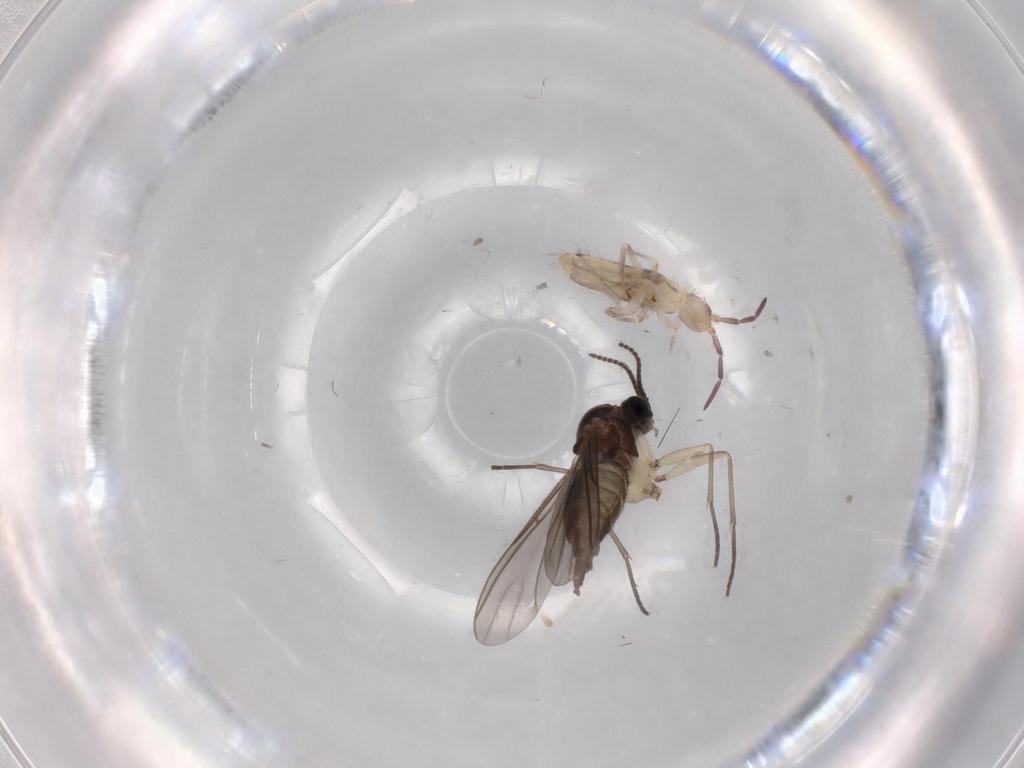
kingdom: Animalia
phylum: Arthropoda
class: Collembola
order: Entomobryomorpha
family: Entomobryidae
